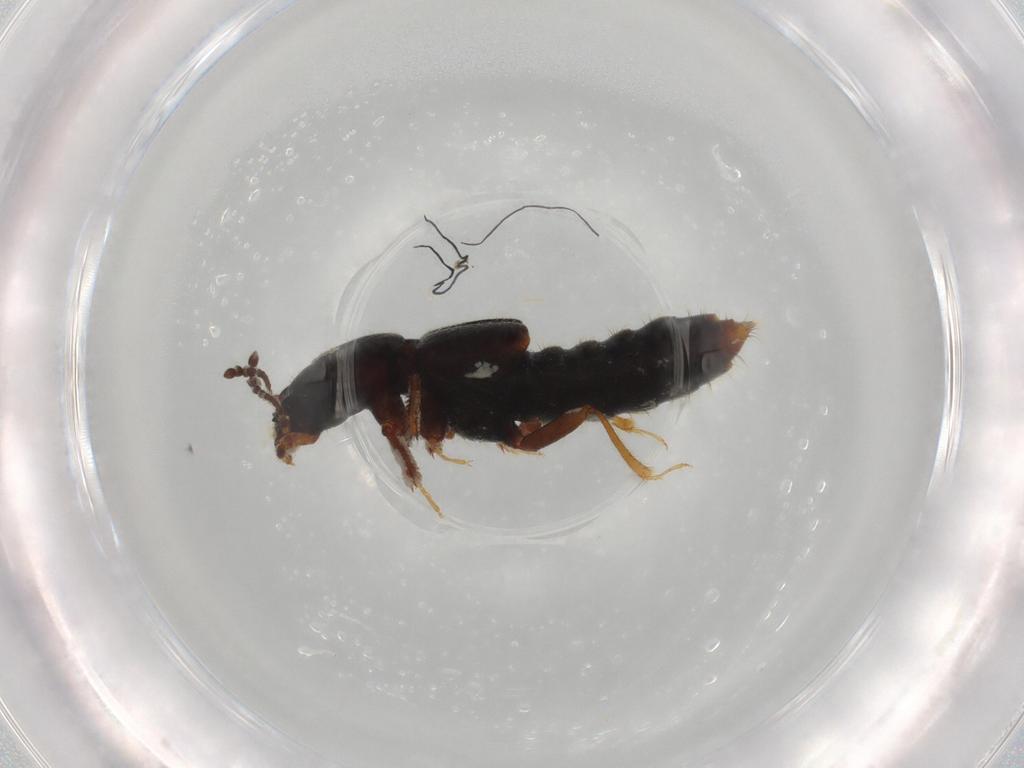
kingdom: Animalia
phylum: Arthropoda
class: Insecta
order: Coleoptera
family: Staphylinidae
